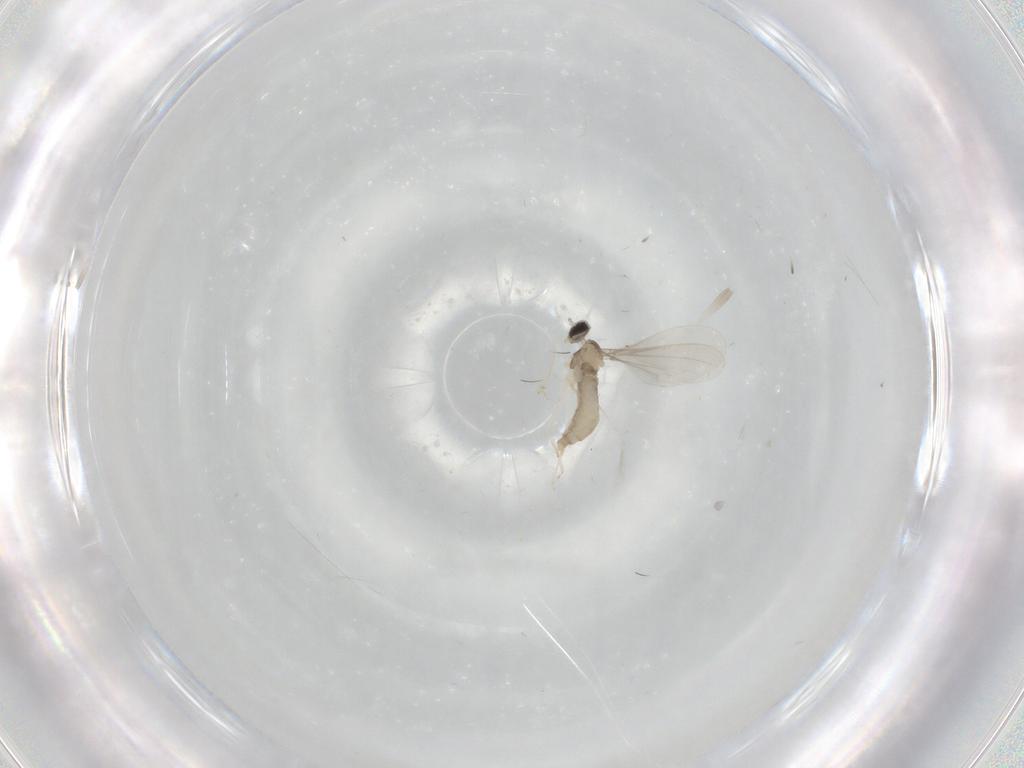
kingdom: Animalia
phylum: Arthropoda
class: Insecta
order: Diptera
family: Cecidomyiidae
